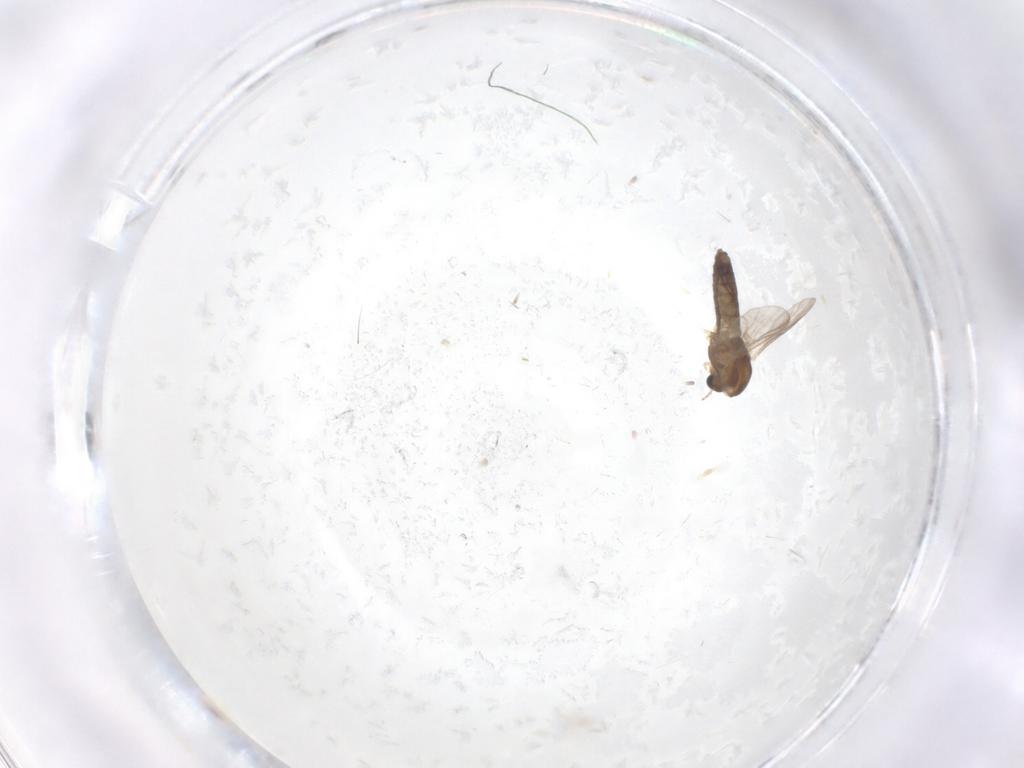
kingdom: Animalia
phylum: Arthropoda
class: Insecta
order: Diptera
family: Chironomidae
